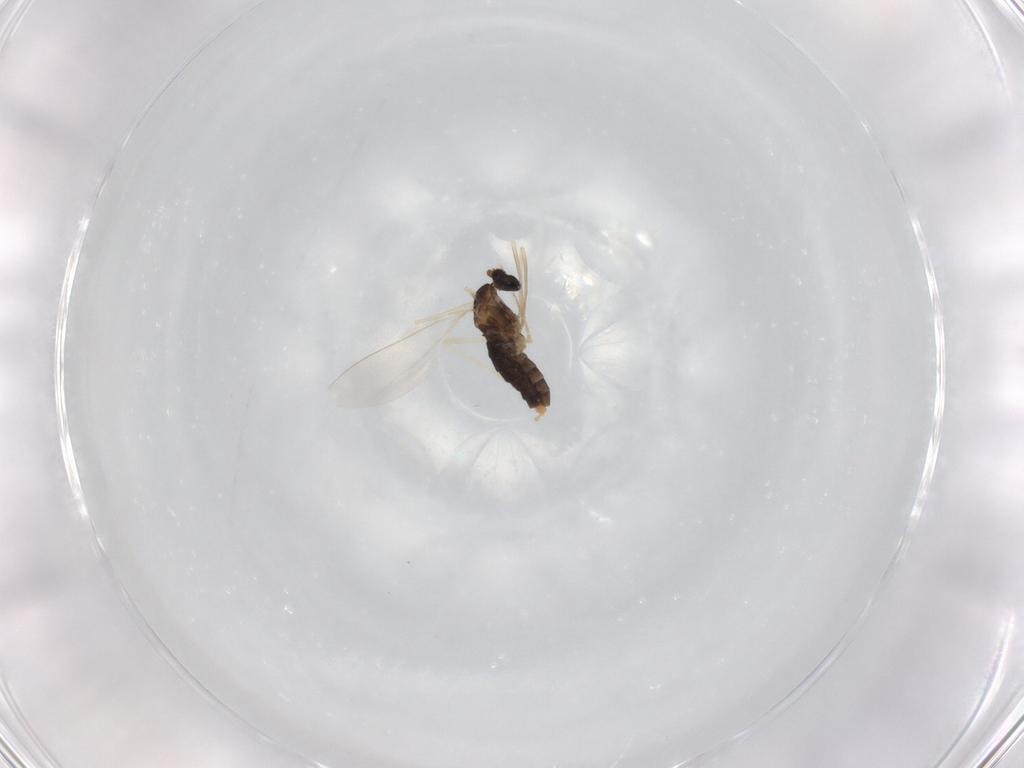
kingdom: Animalia
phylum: Arthropoda
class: Insecta
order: Diptera
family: Cecidomyiidae
